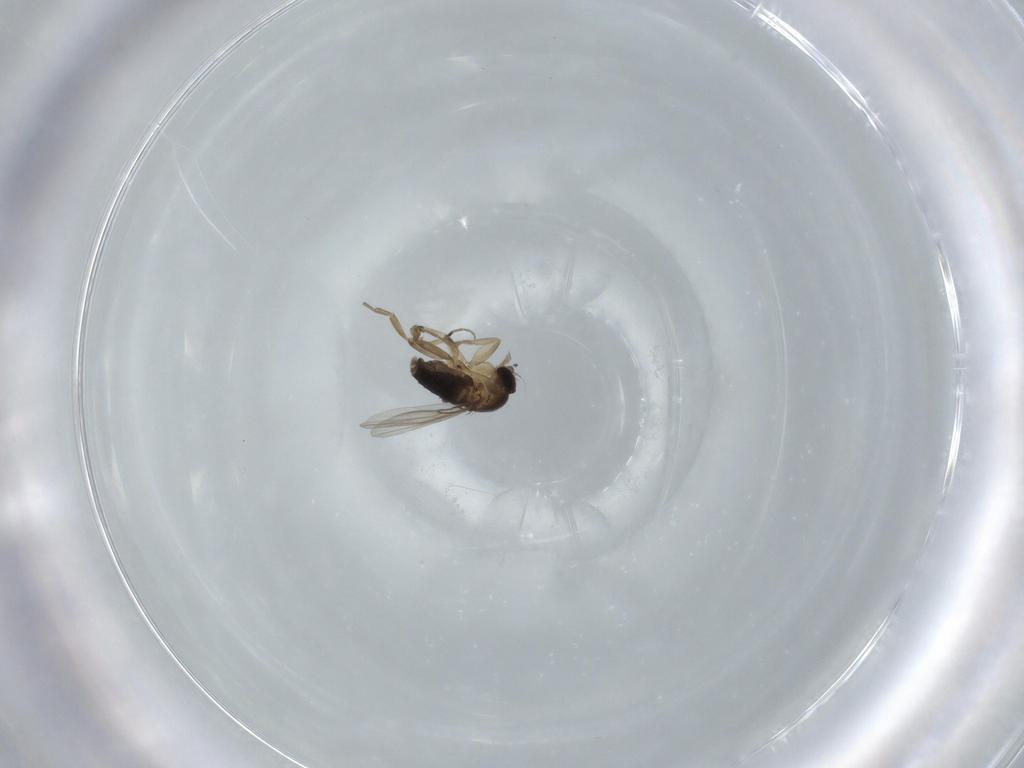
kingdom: Animalia
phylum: Arthropoda
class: Insecta
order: Diptera
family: Phoridae
